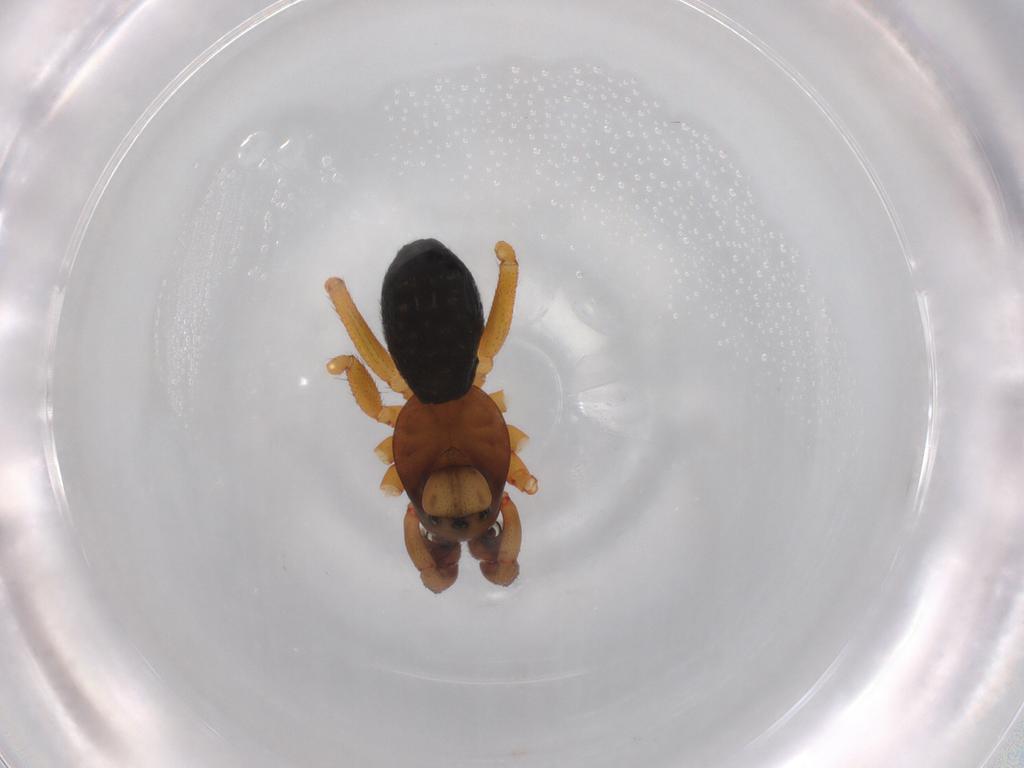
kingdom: Animalia
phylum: Arthropoda
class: Arachnida
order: Araneae
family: Linyphiidae
